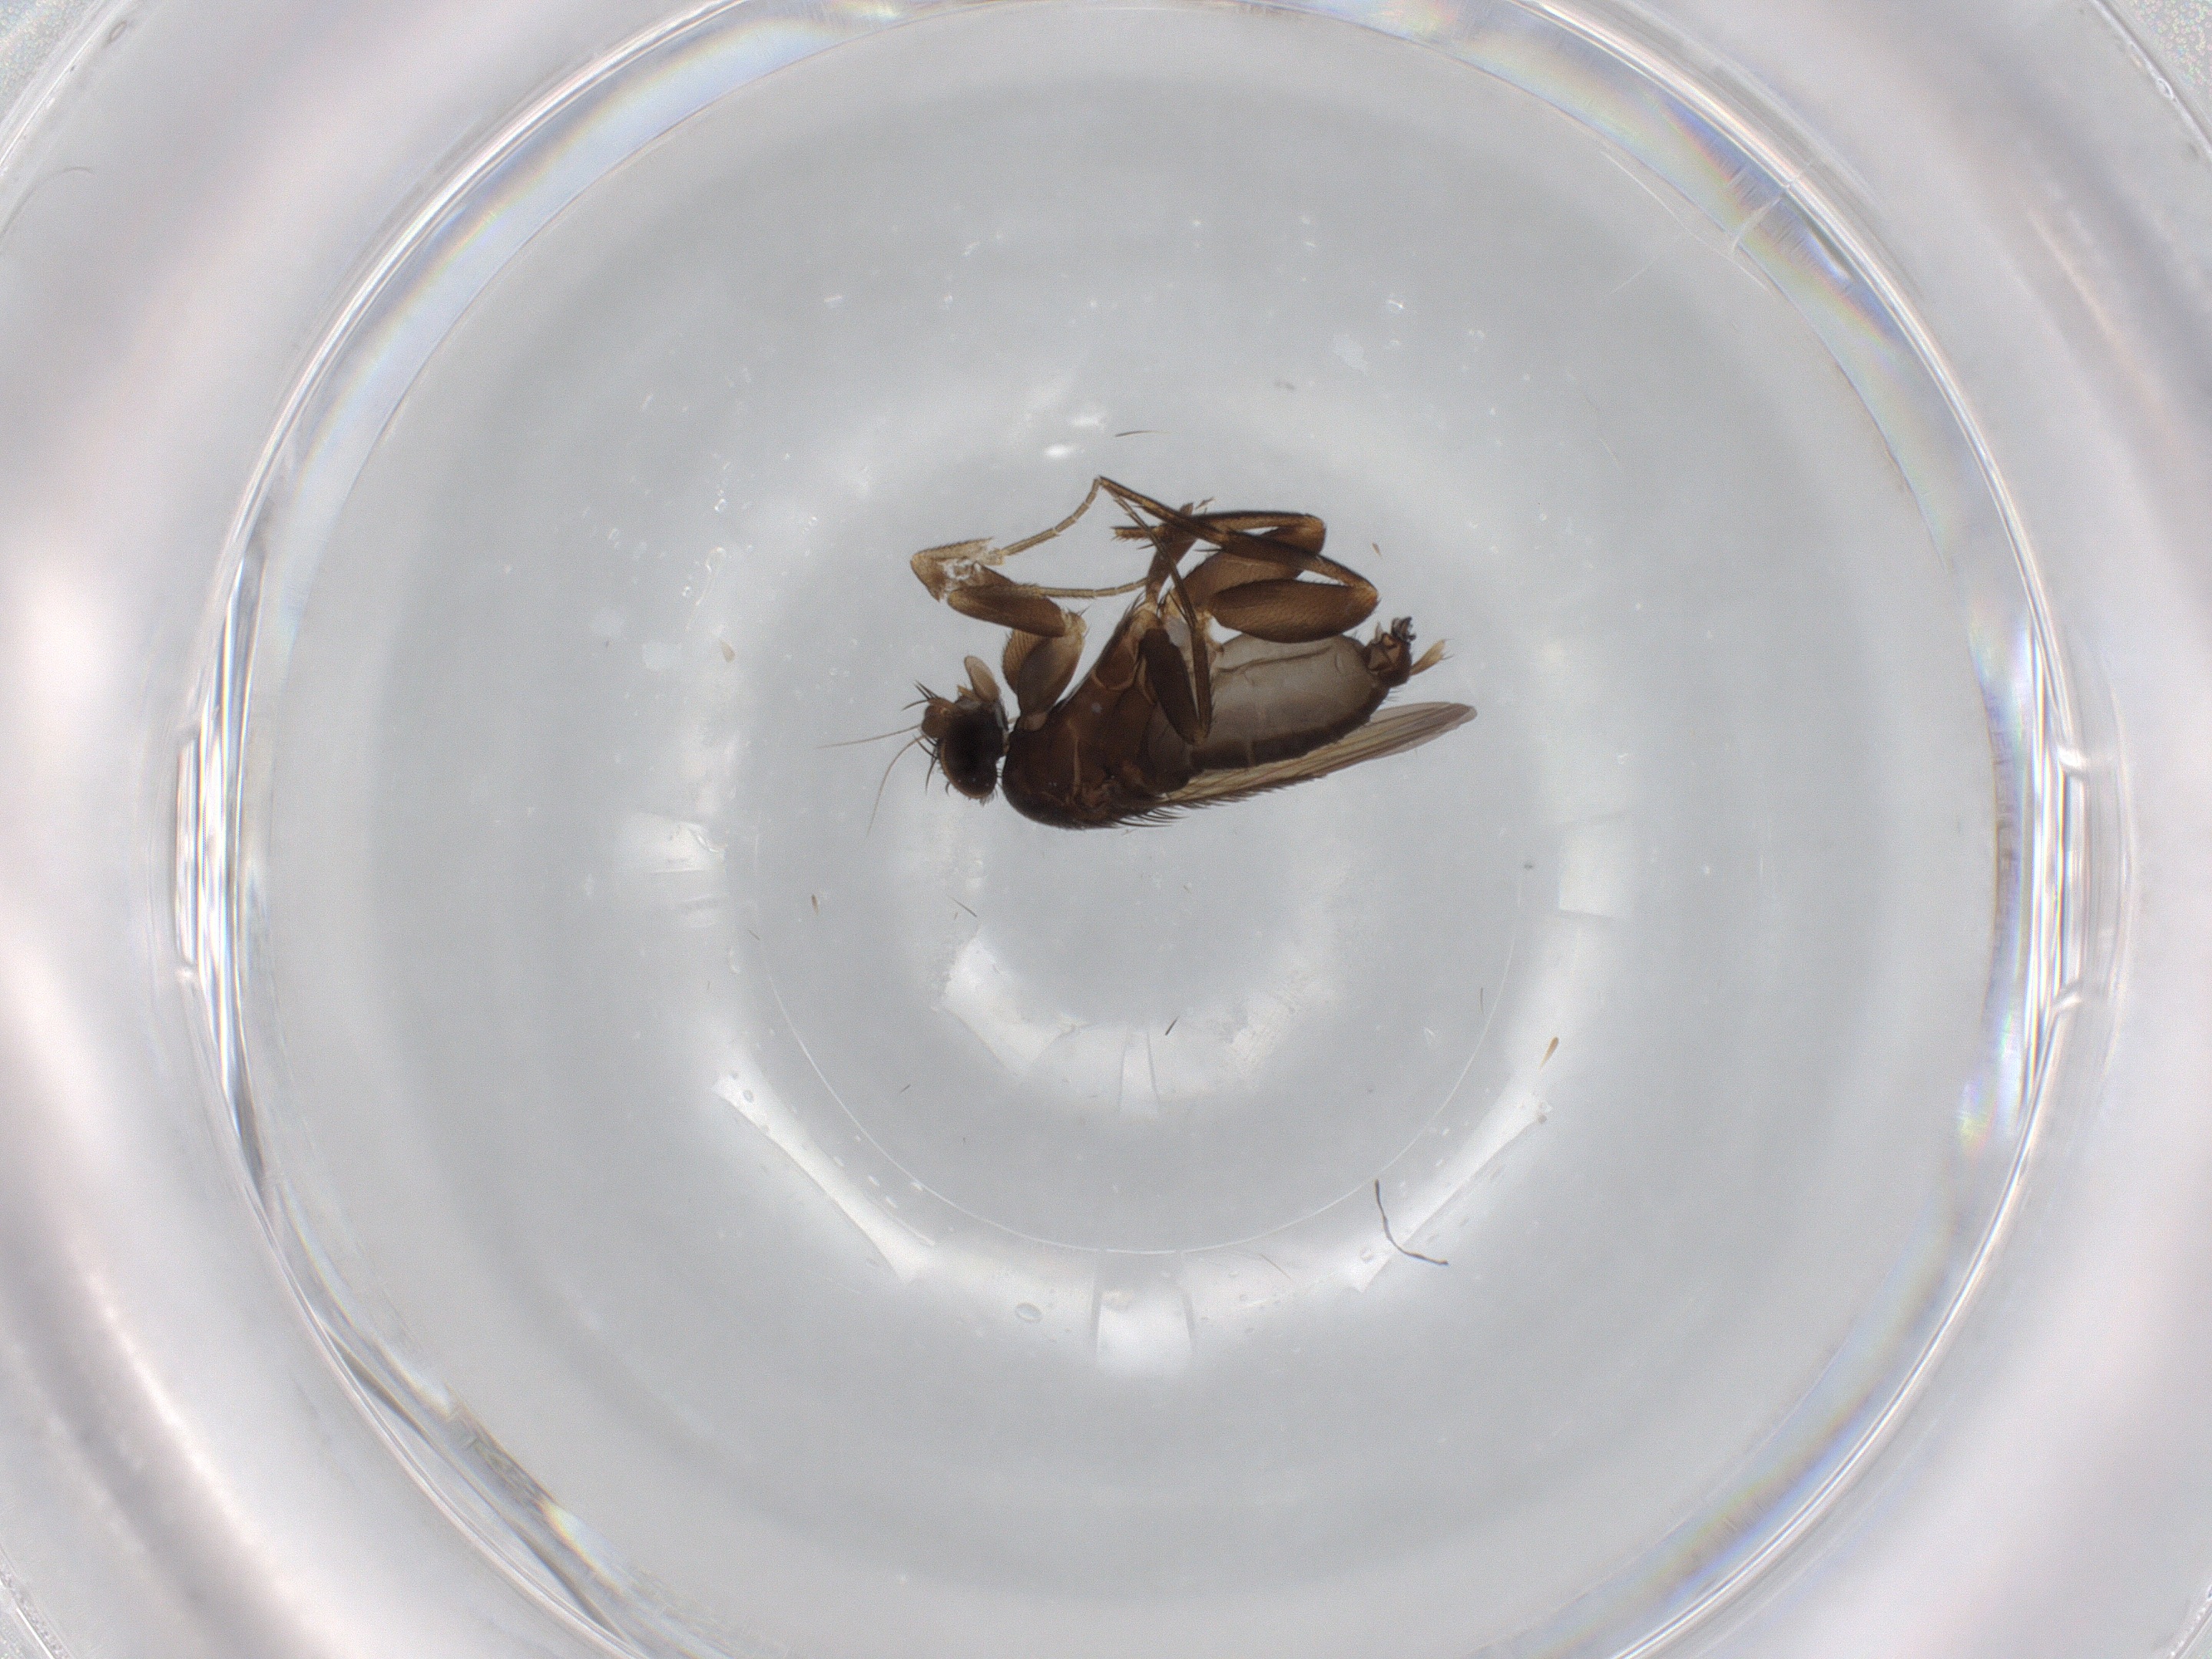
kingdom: Animalia
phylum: Arthropoda
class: Insecta
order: Diptera
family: Phoridae
